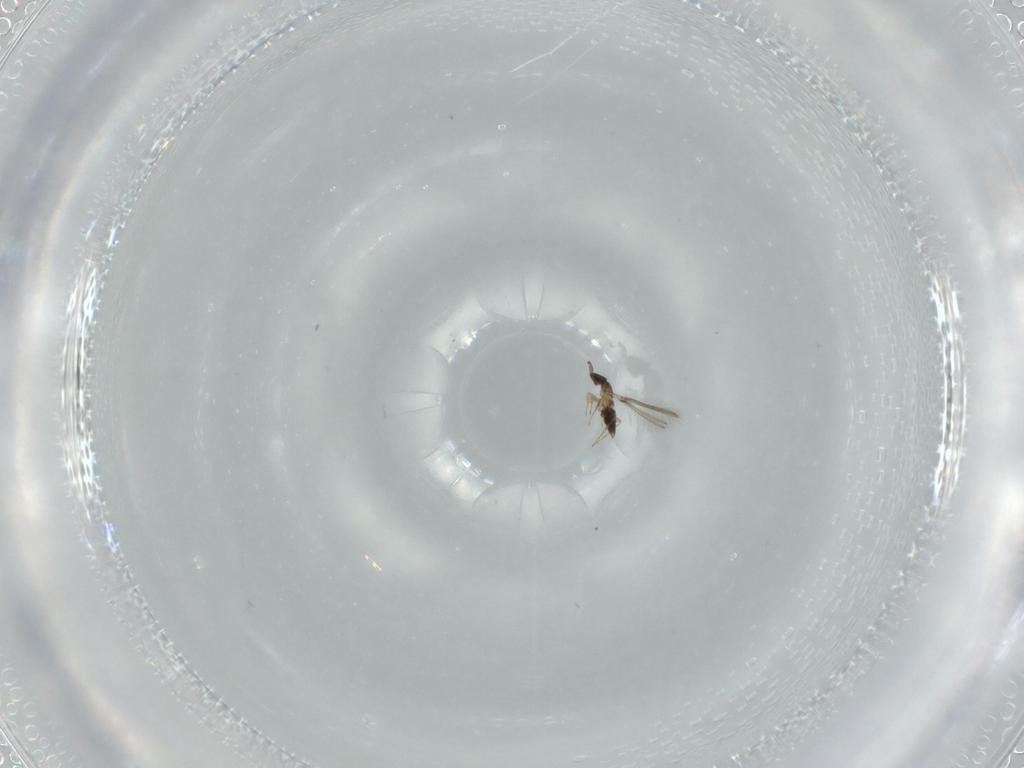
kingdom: Animalia
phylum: Arthropoda
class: Insecta
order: Hymenoptera
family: Mymaridae
